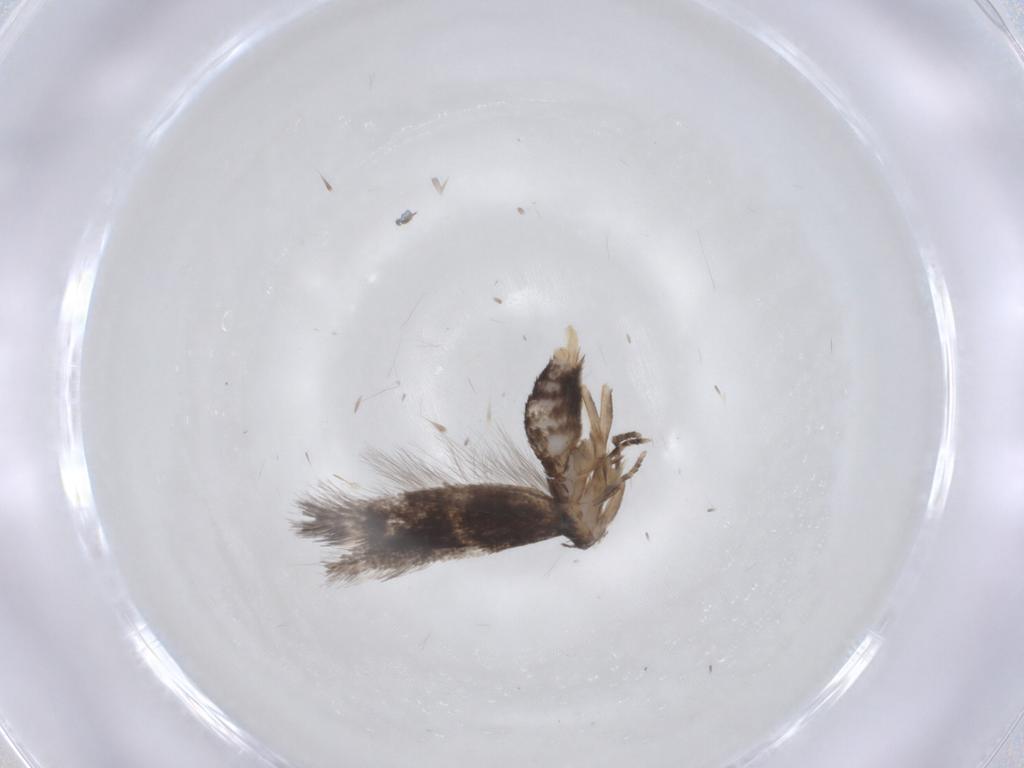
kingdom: Animalia
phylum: Arthropoda
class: Insecta
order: Lepidoptera
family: Elachistidae
